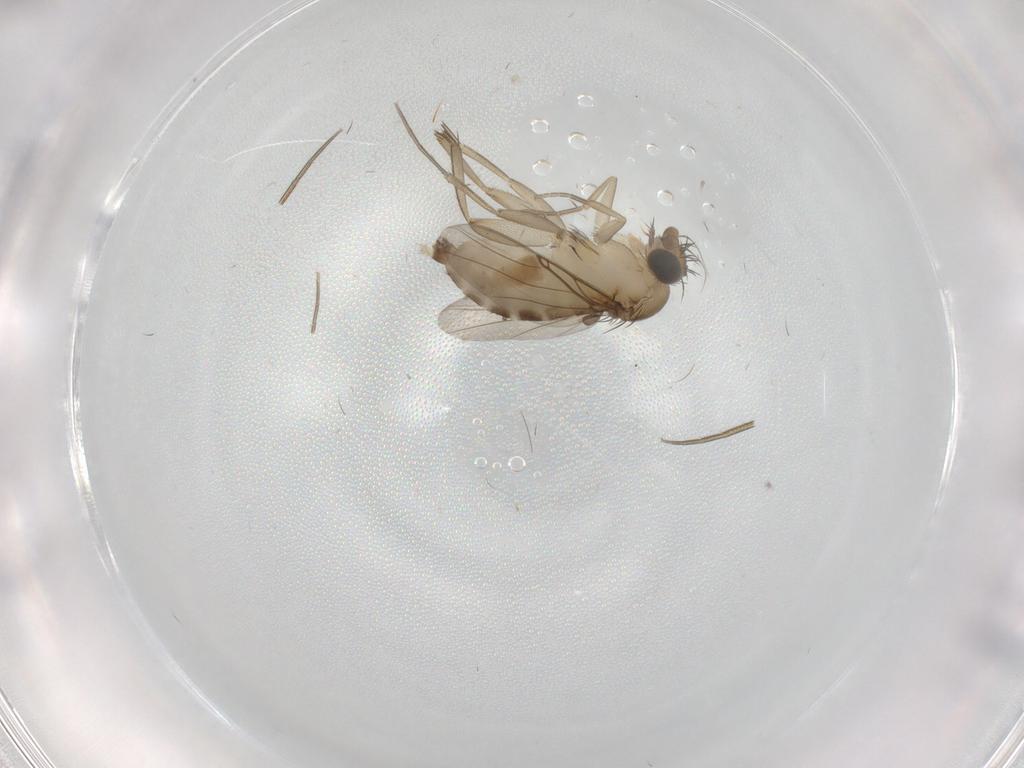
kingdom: Animalia
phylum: Arthropoda
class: Insecta
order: Diptera
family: Phoridae
